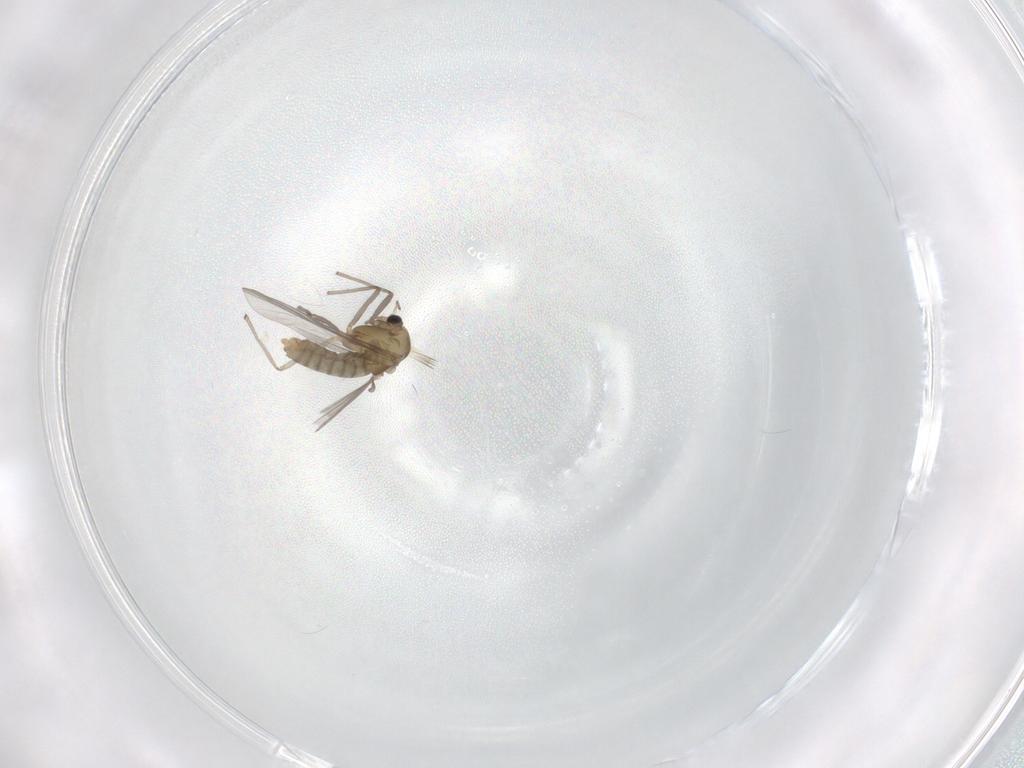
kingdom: Animalia
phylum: Arthropoda
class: Insecta
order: Diptera
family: Chironomidae
